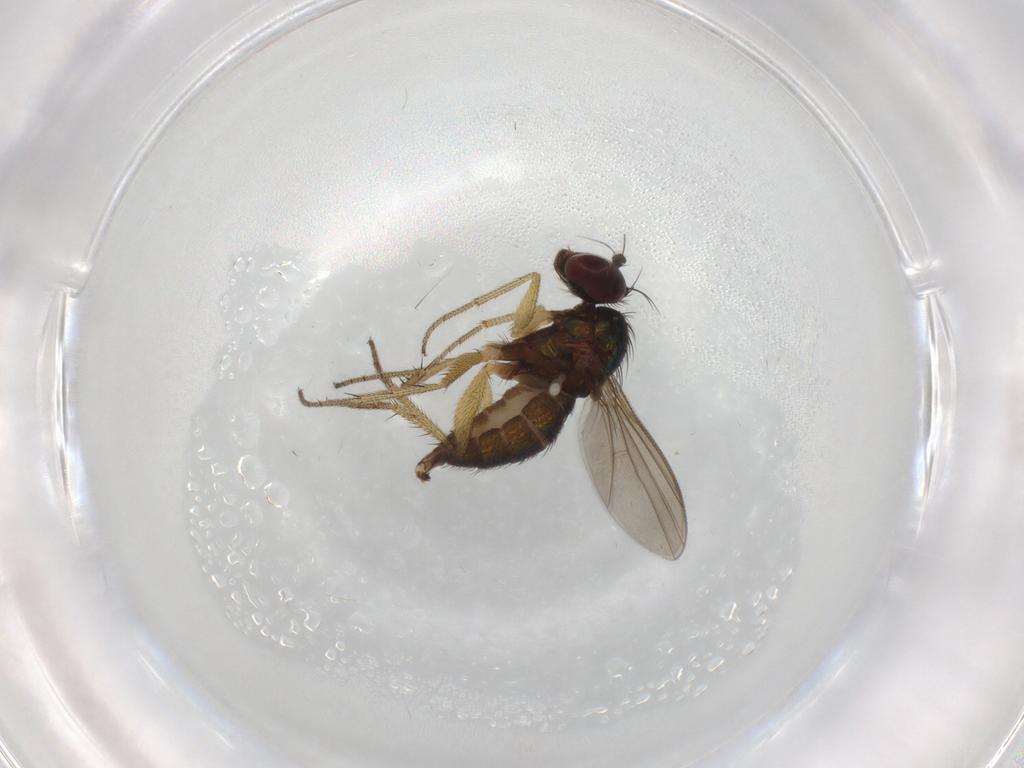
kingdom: Animalia
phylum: Arthropoda
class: Insecta
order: Diptera
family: Dolichopodidae
